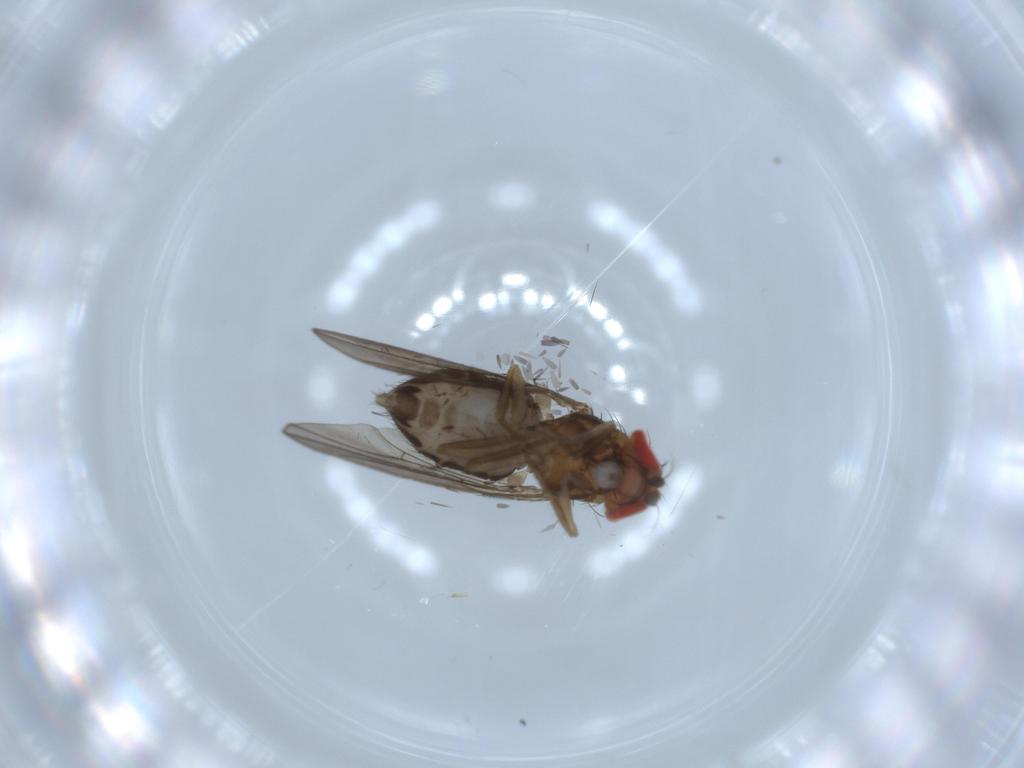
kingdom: Animalia
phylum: Arthropoda
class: Insecta
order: Diptera
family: Drosophilidae
